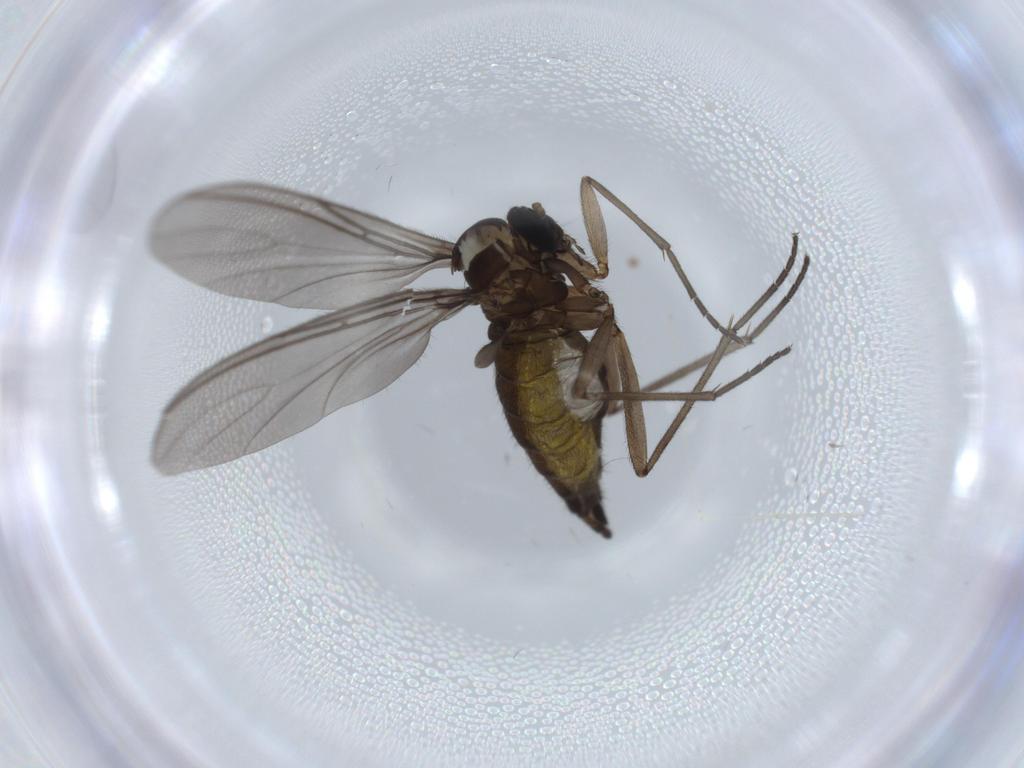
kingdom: Animalia
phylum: Arthropoda
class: Insecta
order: Diptera
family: Sciaridae
